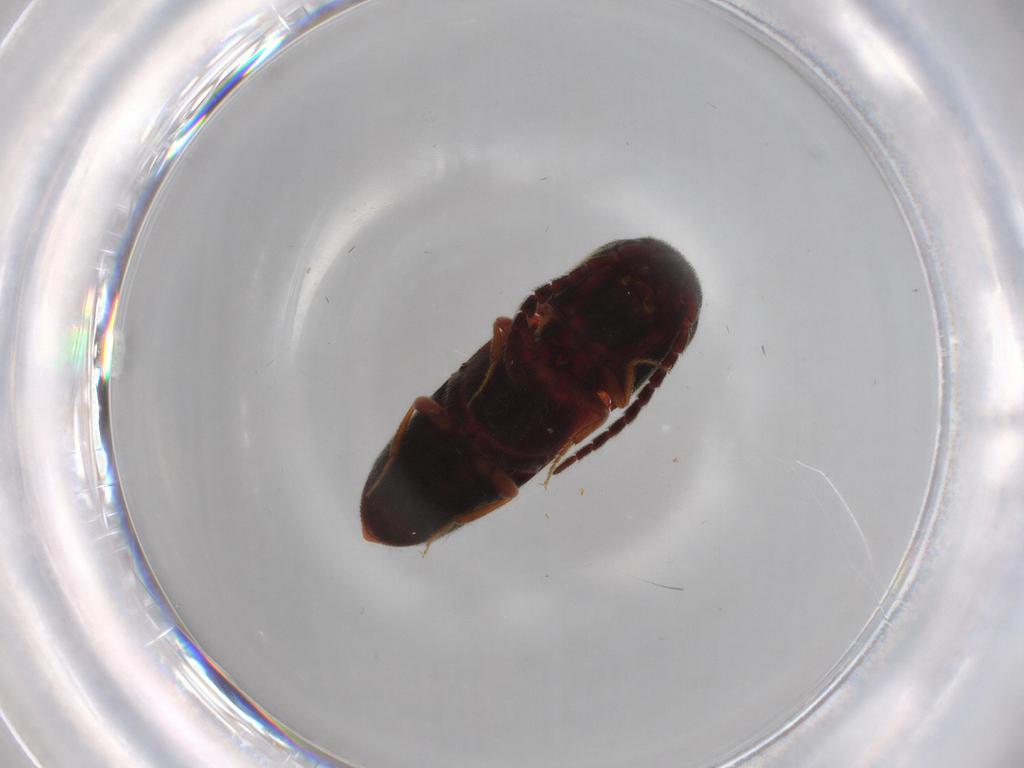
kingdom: Animalia
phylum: Arthropoda
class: Insecta
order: Coleoptera
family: Eucnemidae
